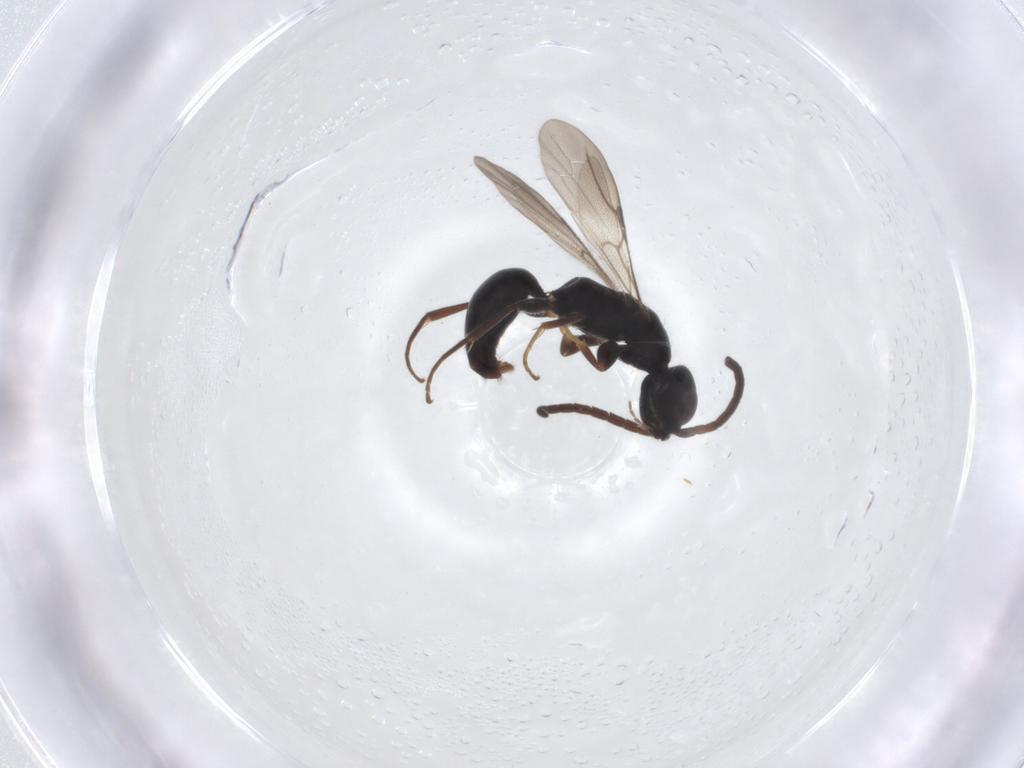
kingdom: Animalia
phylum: Arthropoda
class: Insecta
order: Hymenoptera
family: Bethylidae
